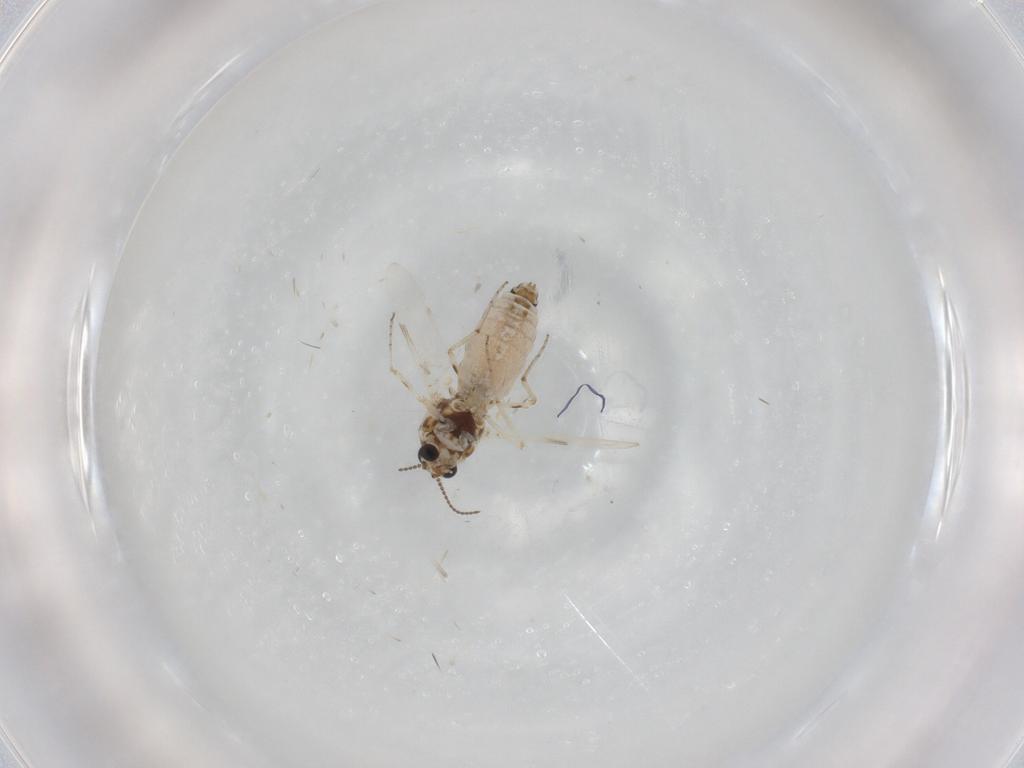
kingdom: Animalia
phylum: Arthropoda
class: Insecta
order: Diptera
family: Ceratopogonidae
